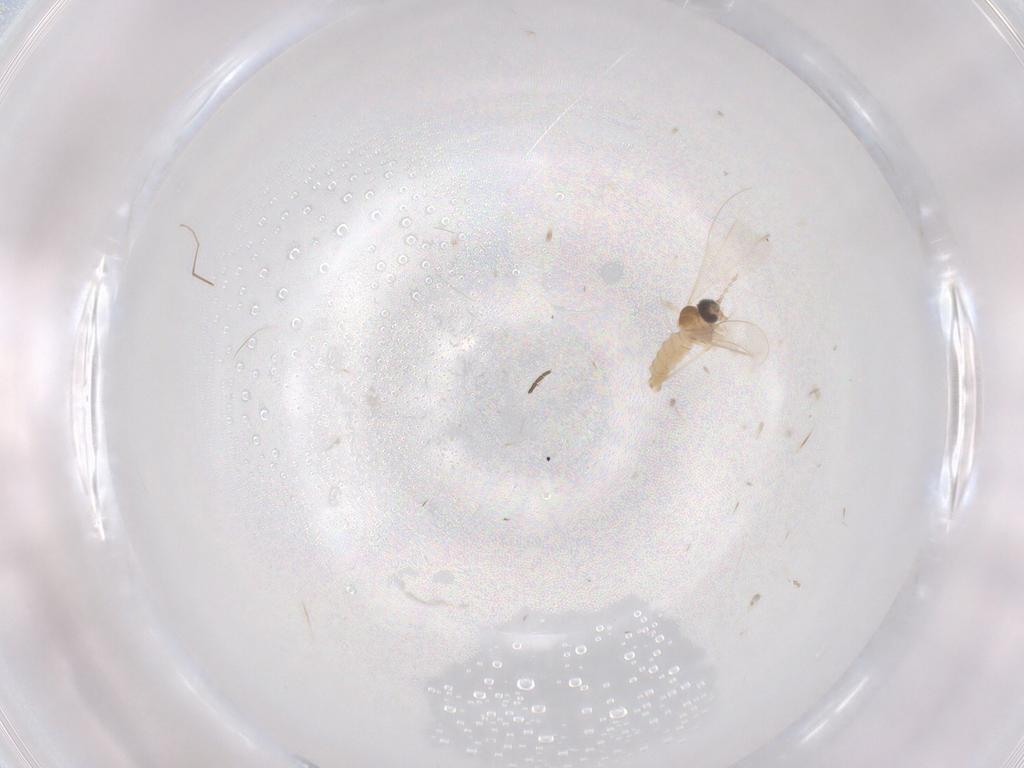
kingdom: Animalia
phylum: Arthropoda
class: Insecta
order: Diptera
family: Cecidomyiidae
